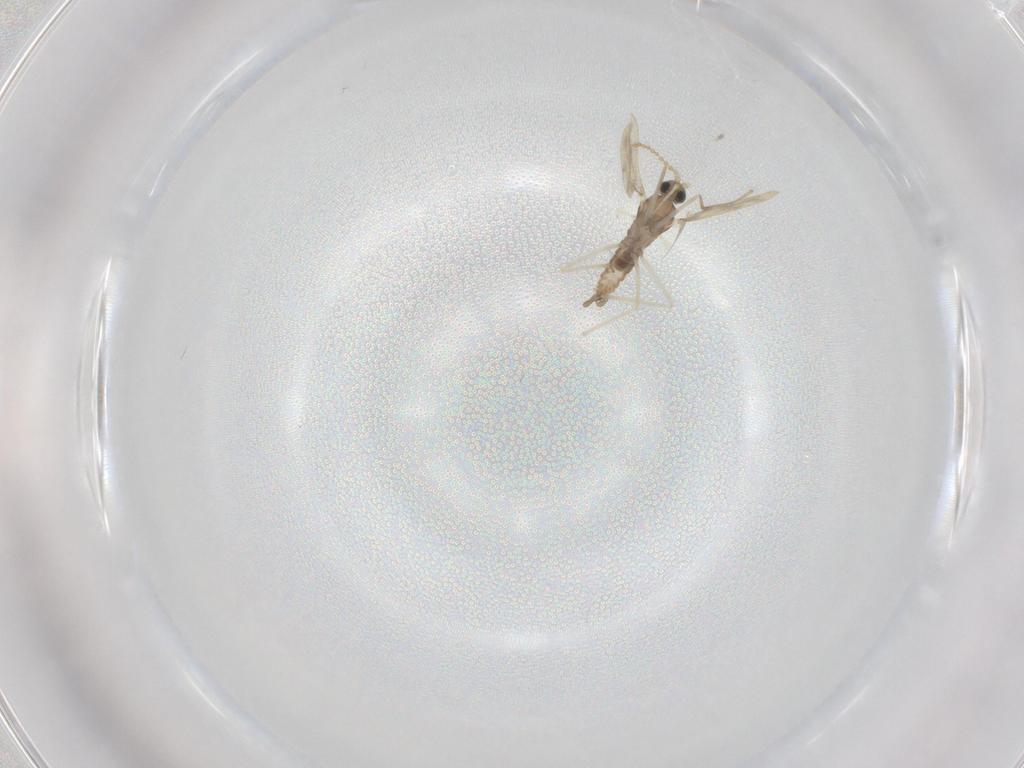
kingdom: Animalia
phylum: Arthropoda
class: Insecta
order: Diptera
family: Cecidomyiidae
